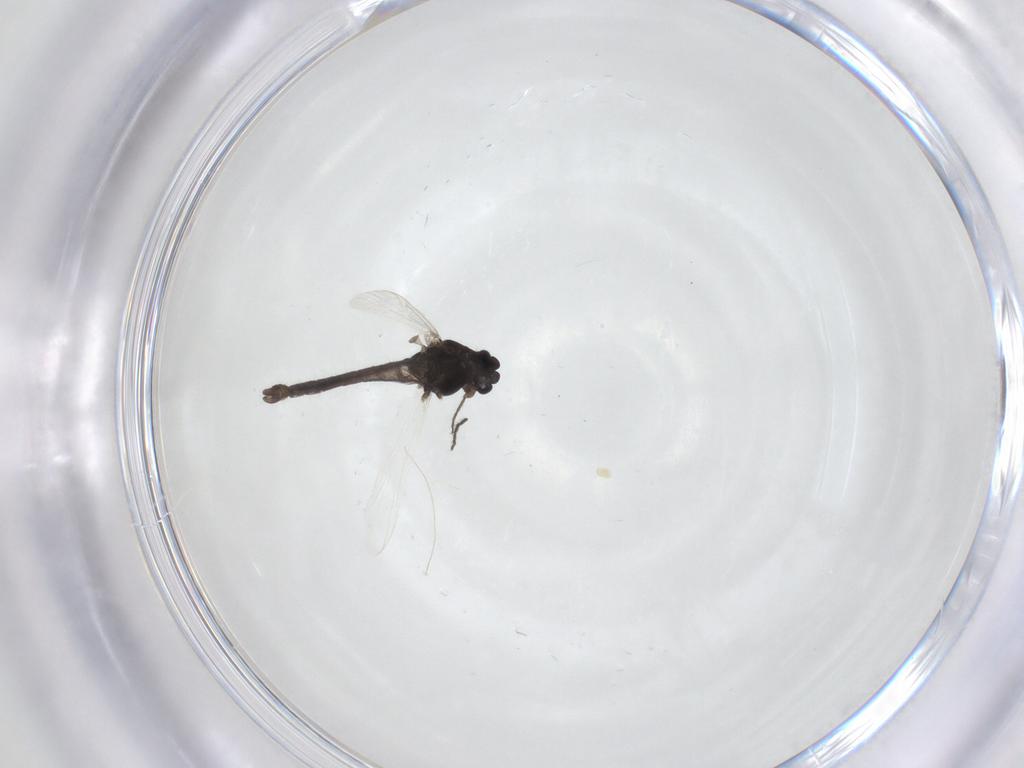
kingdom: Animalia
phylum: Arthropoda
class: Insecta
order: Diptera
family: Chironomidae
